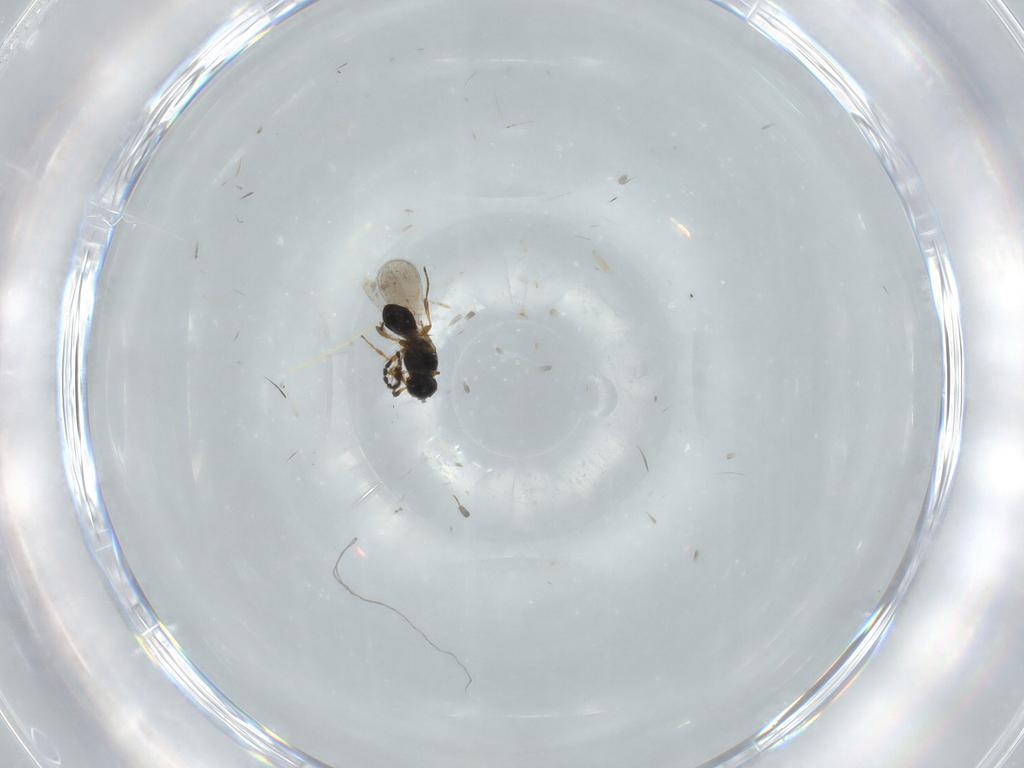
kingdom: Animalia
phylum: Arthropoda
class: Insecta
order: Hymenoptera
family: Platygastridae
